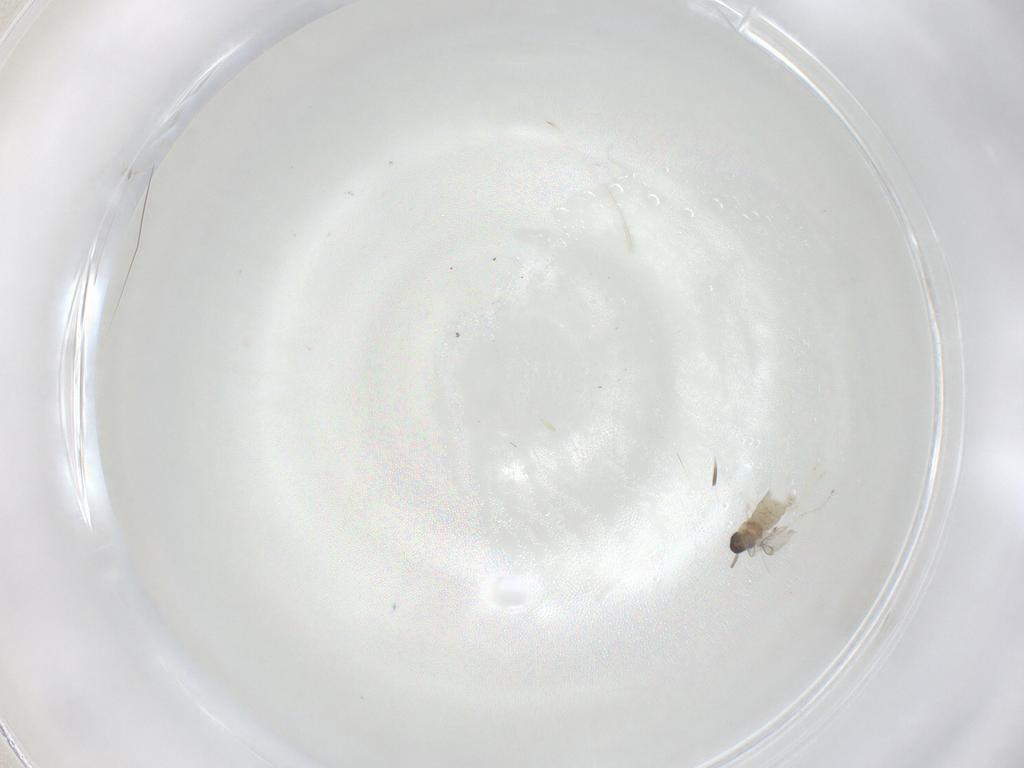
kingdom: Animalia
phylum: Arthropoda
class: Insecta
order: Diptera
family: Cecidomyiidae
